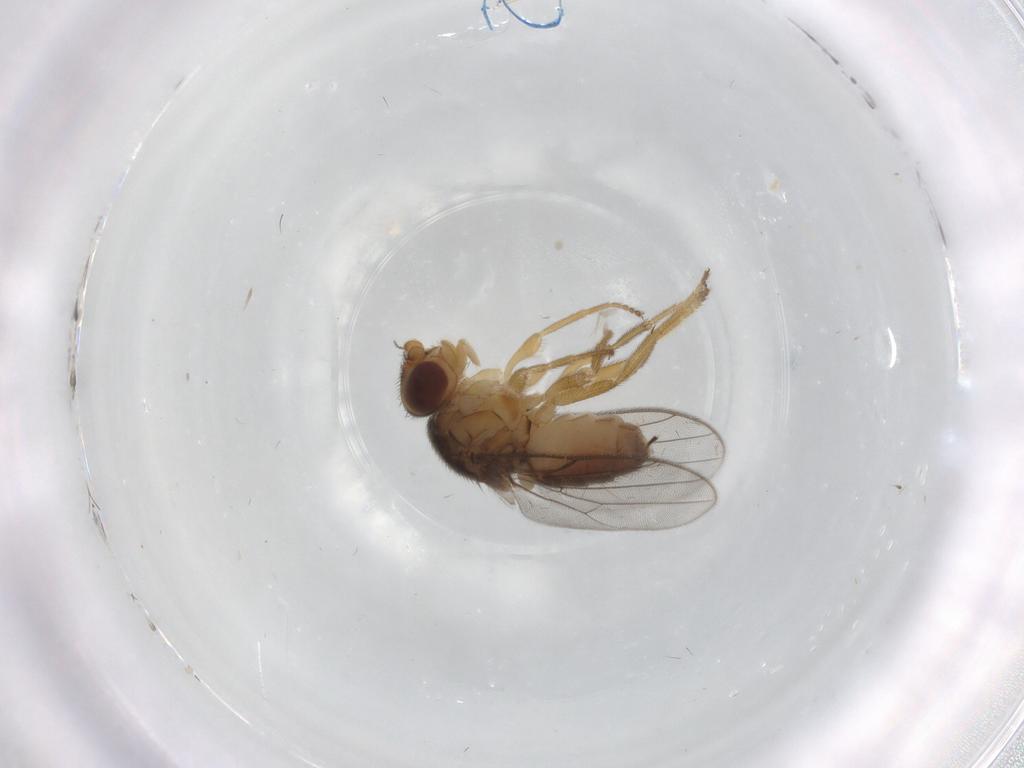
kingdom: Animalia
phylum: Arthropoda
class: Insecta
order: Diptera
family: Chloropidae
